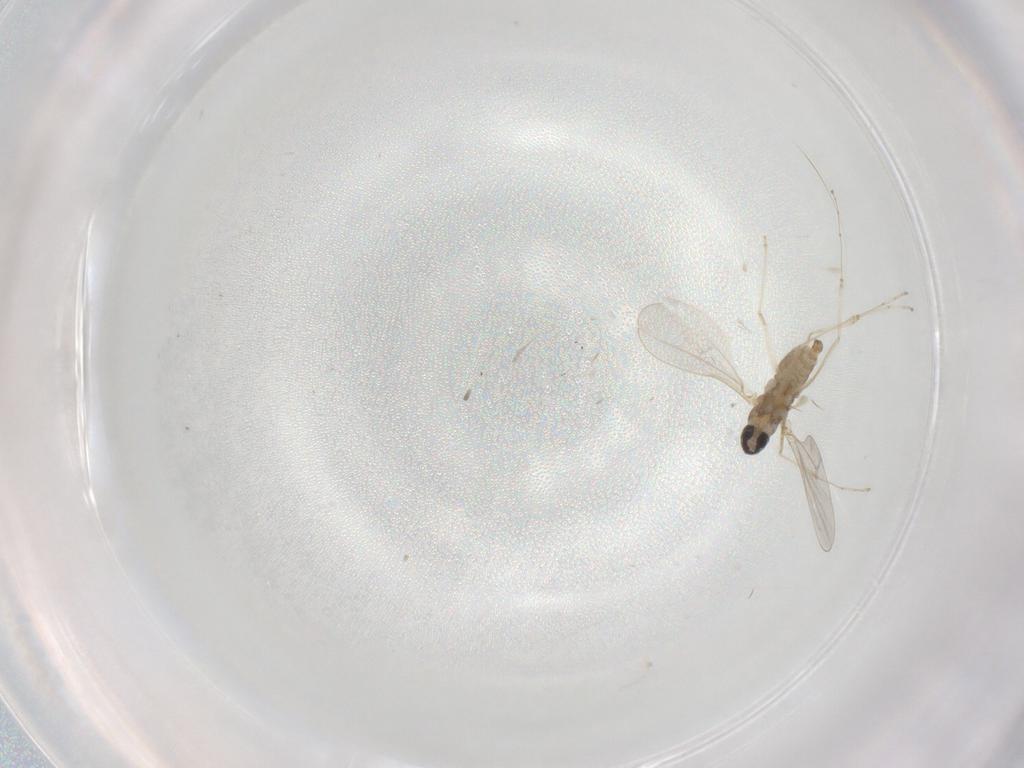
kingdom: Animalia
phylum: Arthropoda
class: Insecta
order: Diptera
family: Cecidomyiidae
